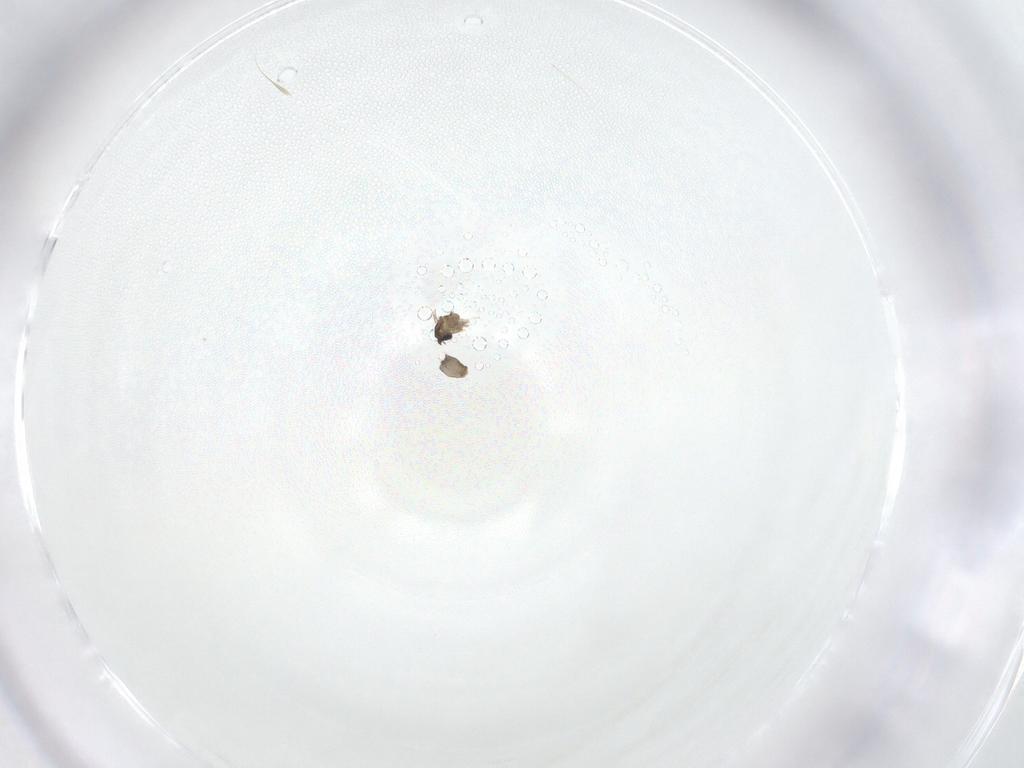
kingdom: Animalia
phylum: Arthropoda
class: Insecta
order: Diptera
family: Cecidomyiidae
